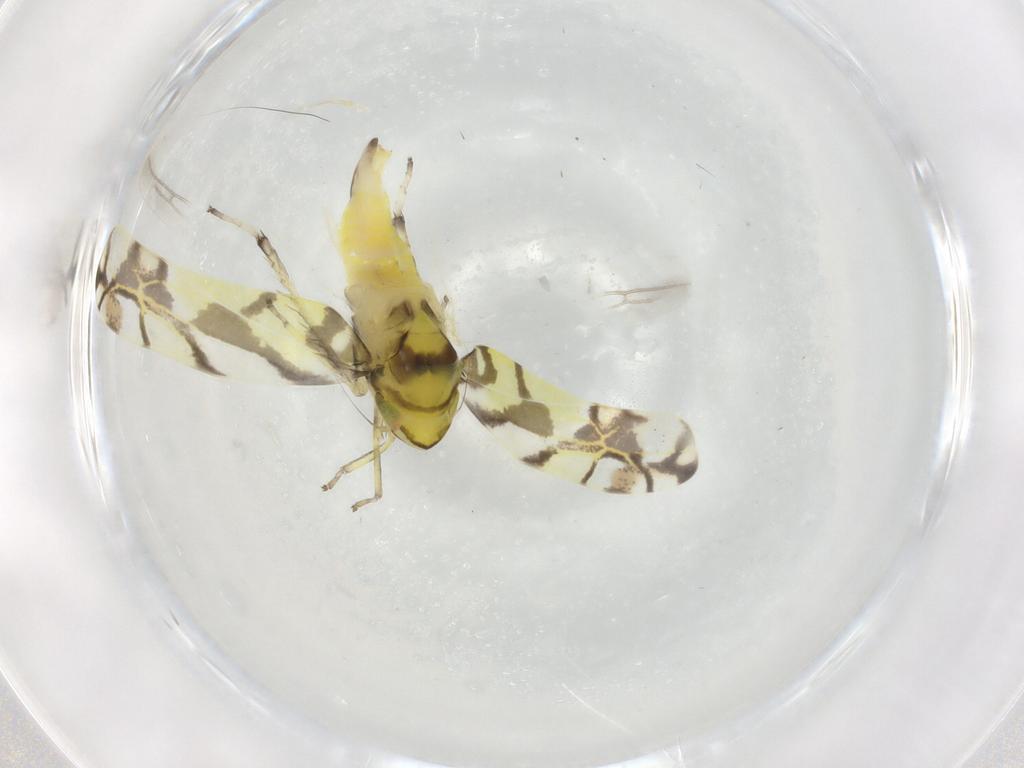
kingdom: Animalia
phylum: Arthropoda
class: Insecta
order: Hemiptera
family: Cicadellidae
